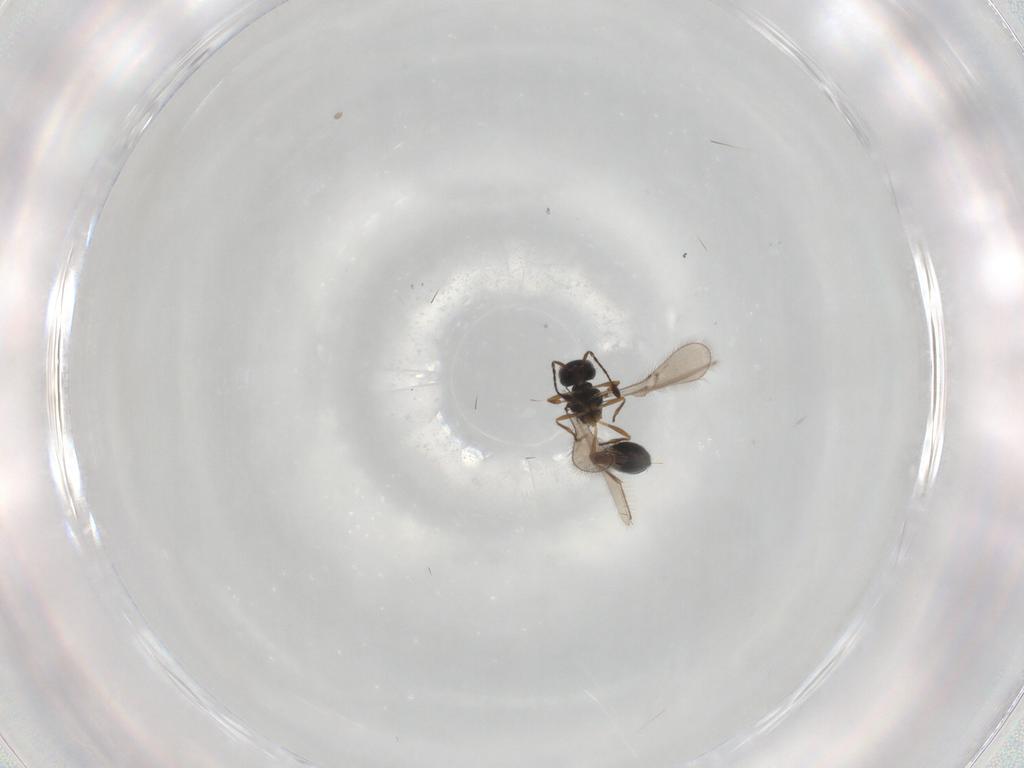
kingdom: Animalia
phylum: Arthropoda
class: Insecta
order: Hymenoptera
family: Scelionidae
